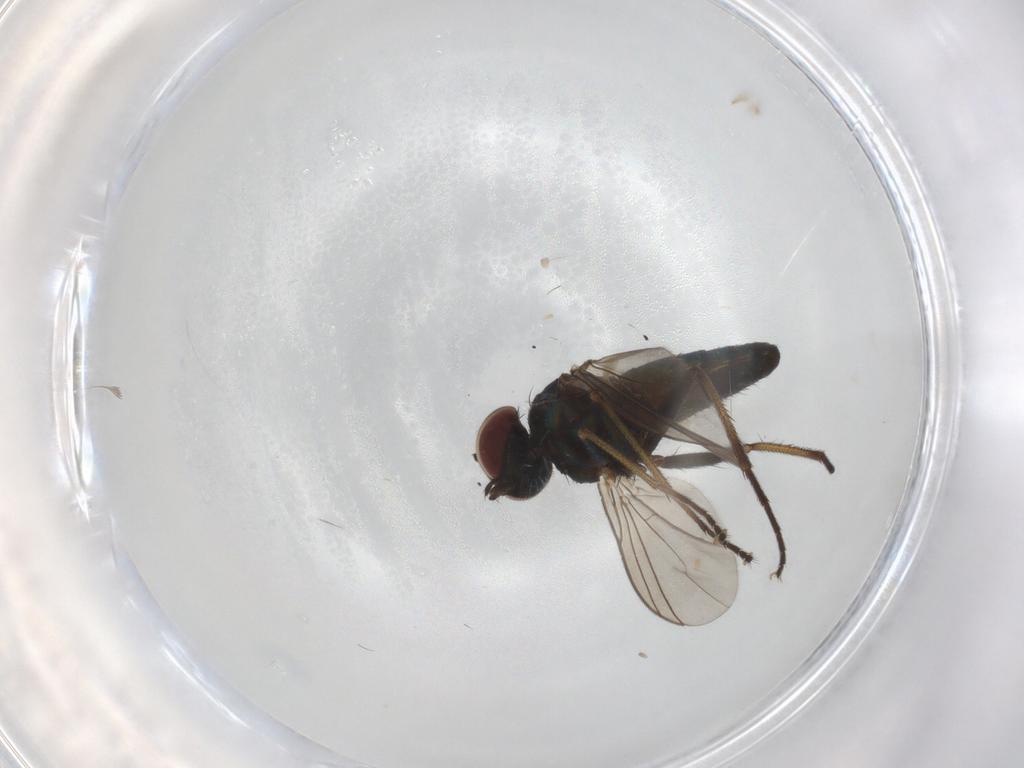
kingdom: Animalia
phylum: Arthropoda
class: Insecta
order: Diptera
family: Dolichopodidae
